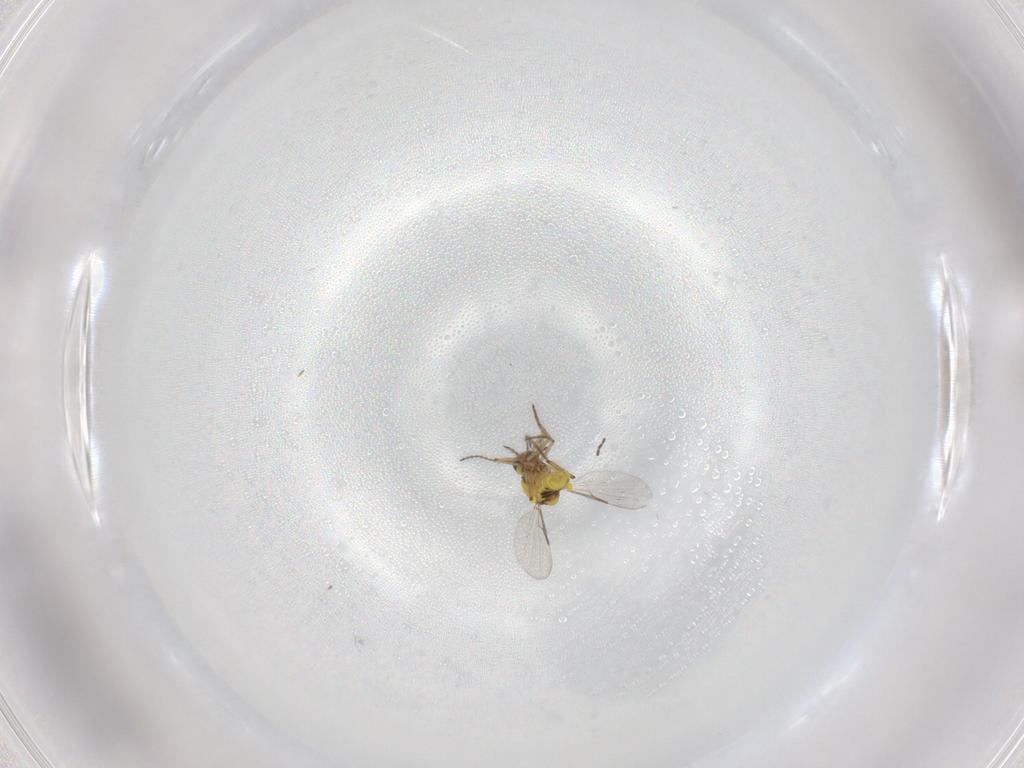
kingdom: Animalia
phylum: Arthropoda
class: Insecta
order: Diptera
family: Ceratopogonidae
